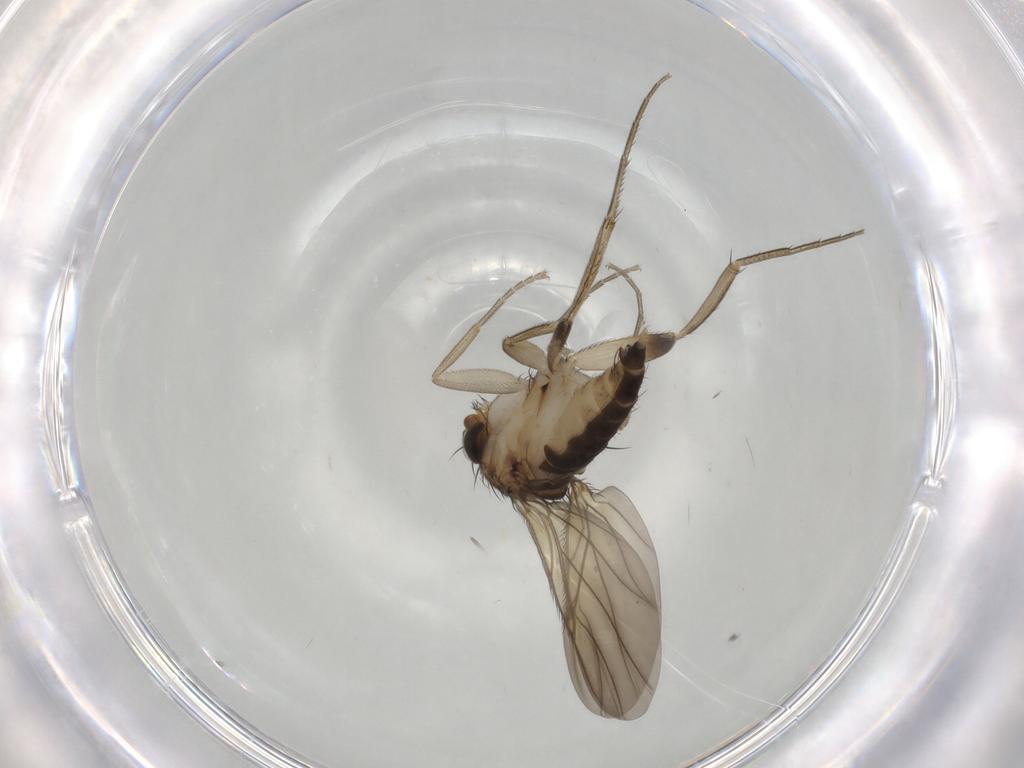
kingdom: Animalia
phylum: Arthropoda
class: Insecta
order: Diptera
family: Phoridae
